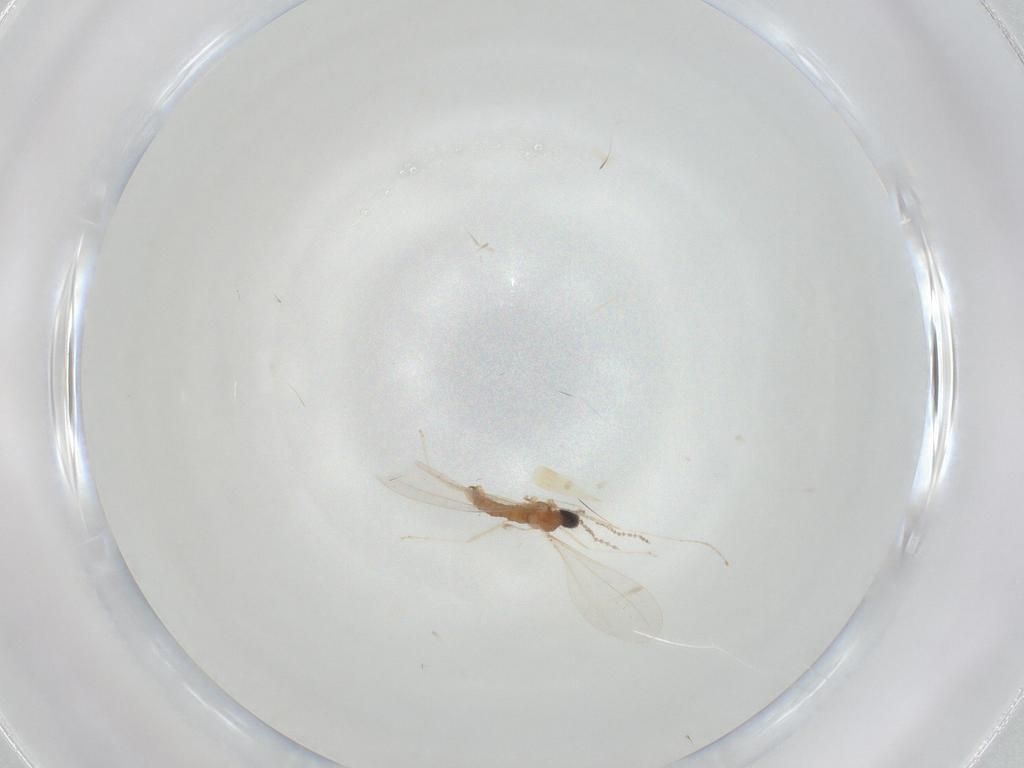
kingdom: Animalia
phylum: Arthropoda
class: Insecta
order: Diptera
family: Cecidomyiidae
